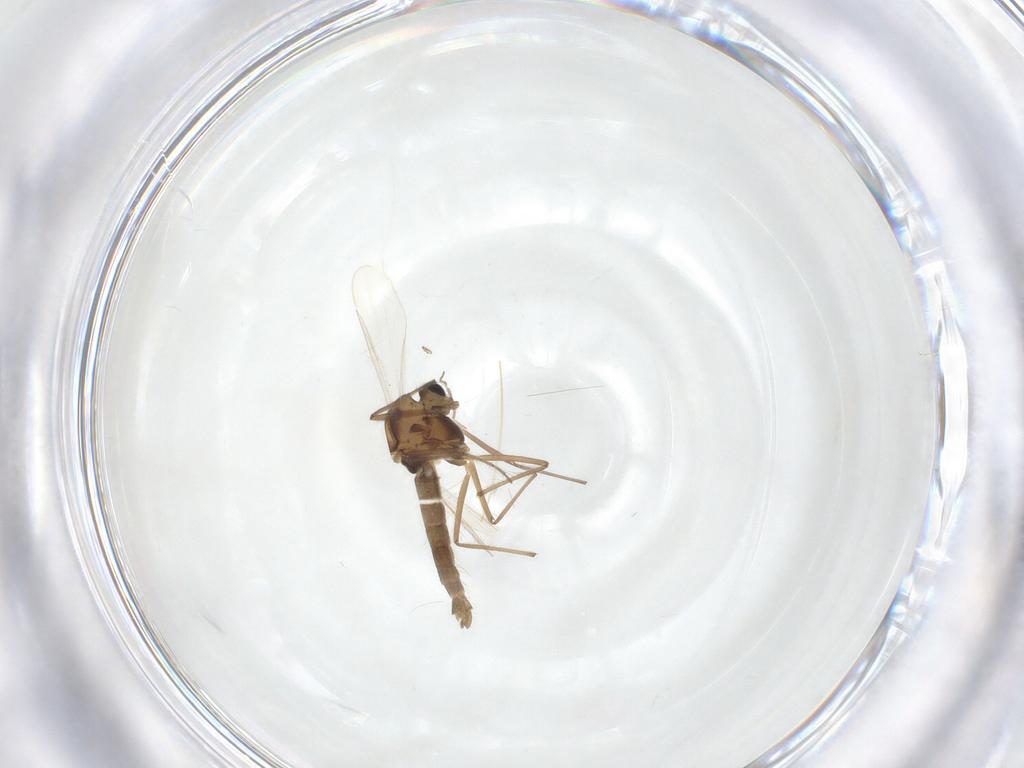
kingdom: Animalia
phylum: Arthropoda
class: Insecta
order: Diptera
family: Chironomidae
